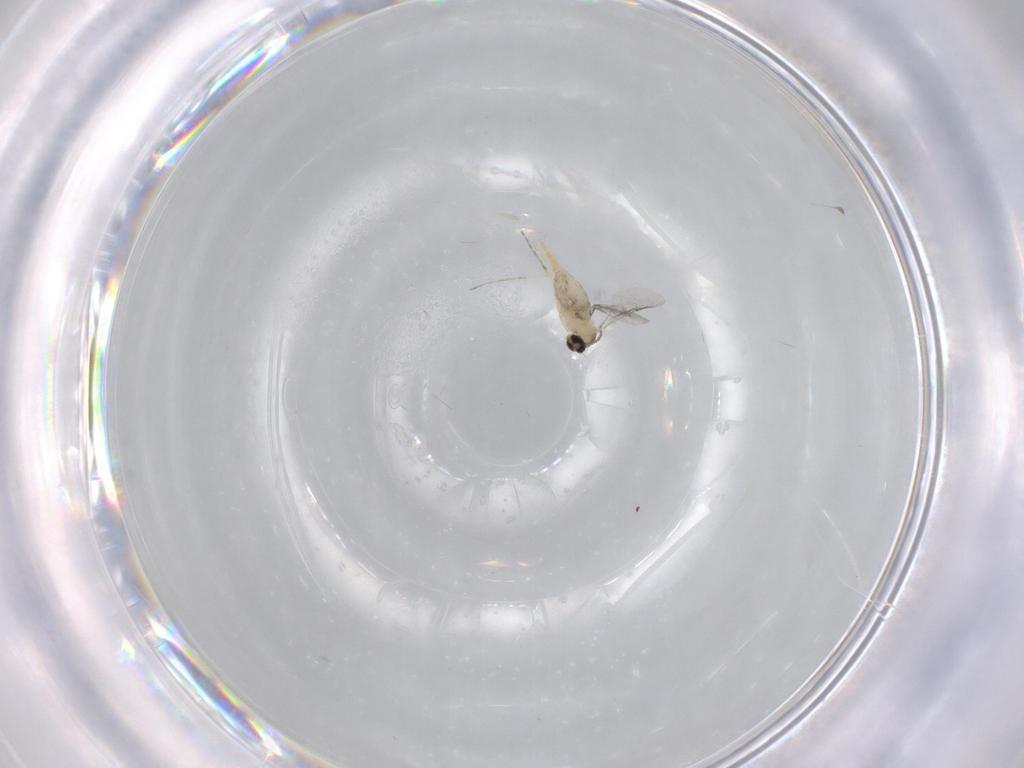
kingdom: Animalia
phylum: Arthropoda
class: Insecta
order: Diptera
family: Cecidomyiidae
